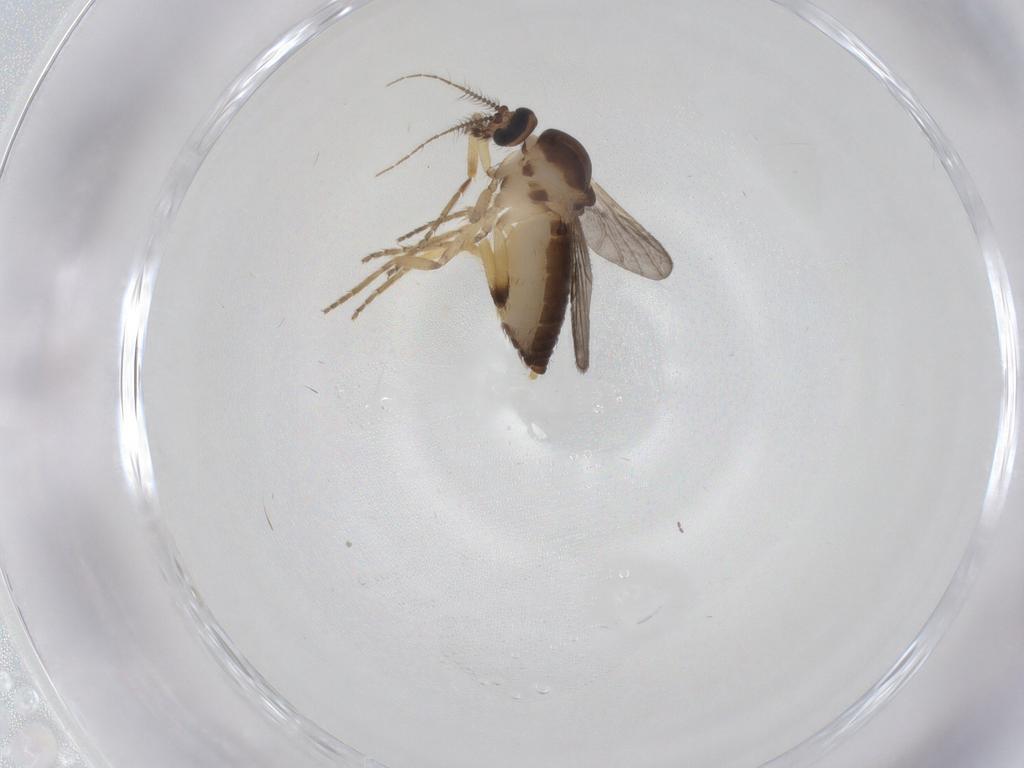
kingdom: Animalia
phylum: Arthropoda
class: Insecta
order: Diptera
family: Ceratopogonidae
